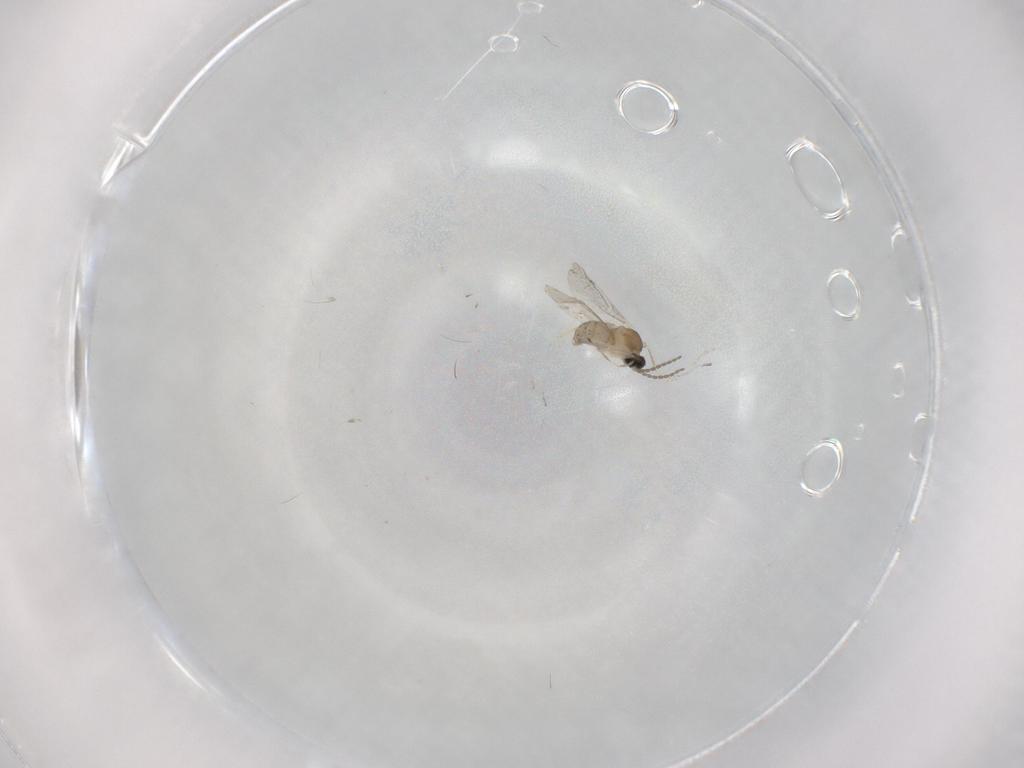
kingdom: Animalia
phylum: Arthropoda
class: Insecta
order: Diptera
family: Cecidomyiidae
